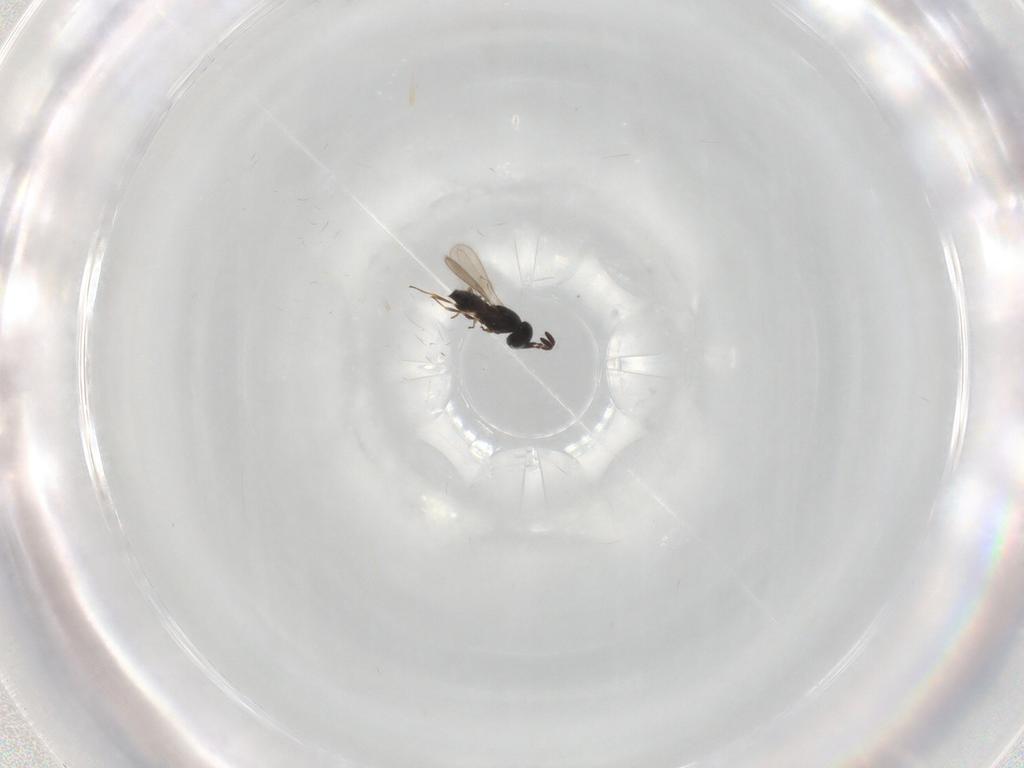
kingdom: Animalia
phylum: Arthropoda
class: Insecta
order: Hymenoptera
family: Scelionidae
